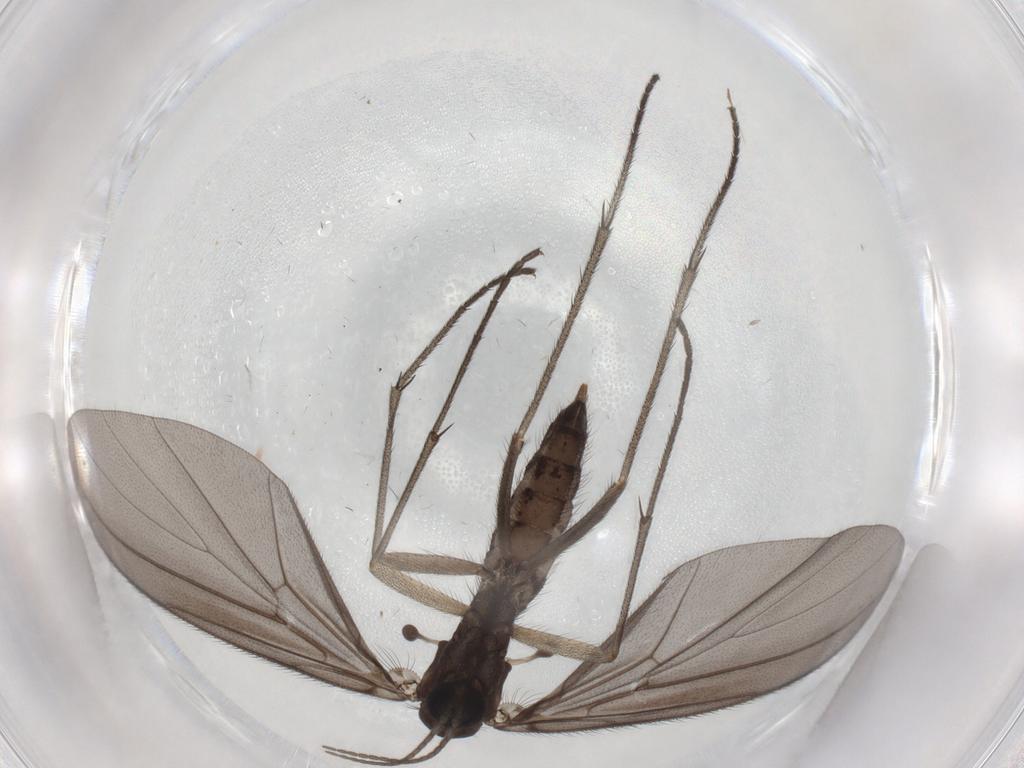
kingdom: Animalia
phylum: Arthropoda
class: Insecta
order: Diptera
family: Diadocidiidae
